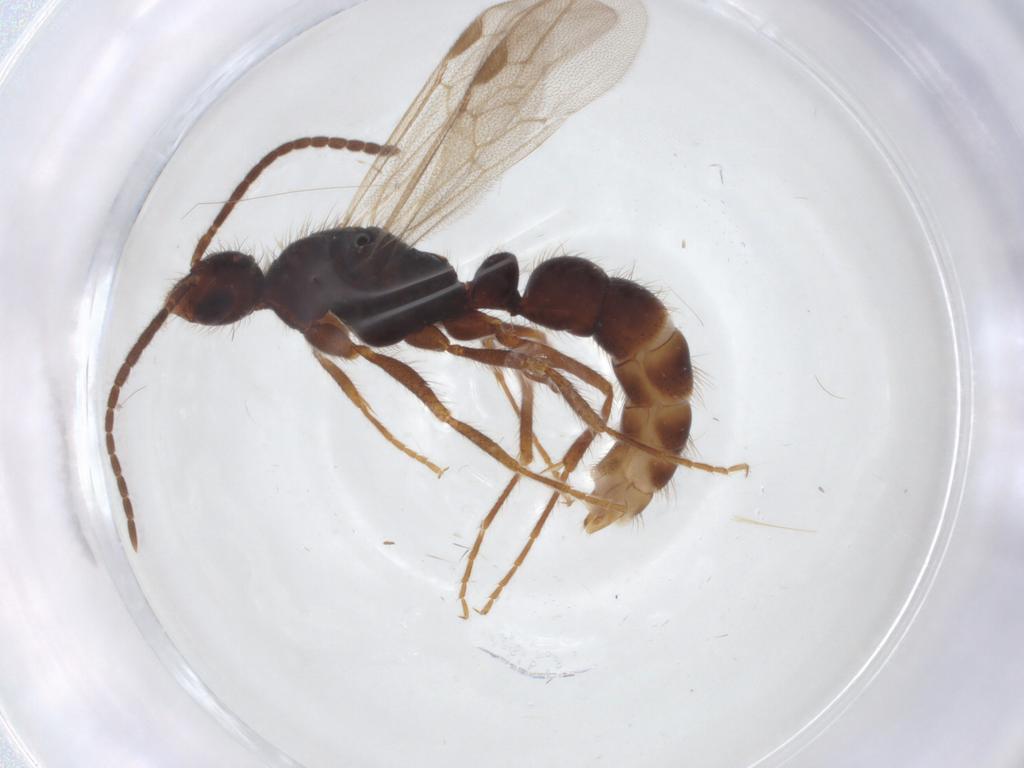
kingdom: Animalia
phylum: Arthropoda
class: Insecta
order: Hymenoptera
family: Formicidae
